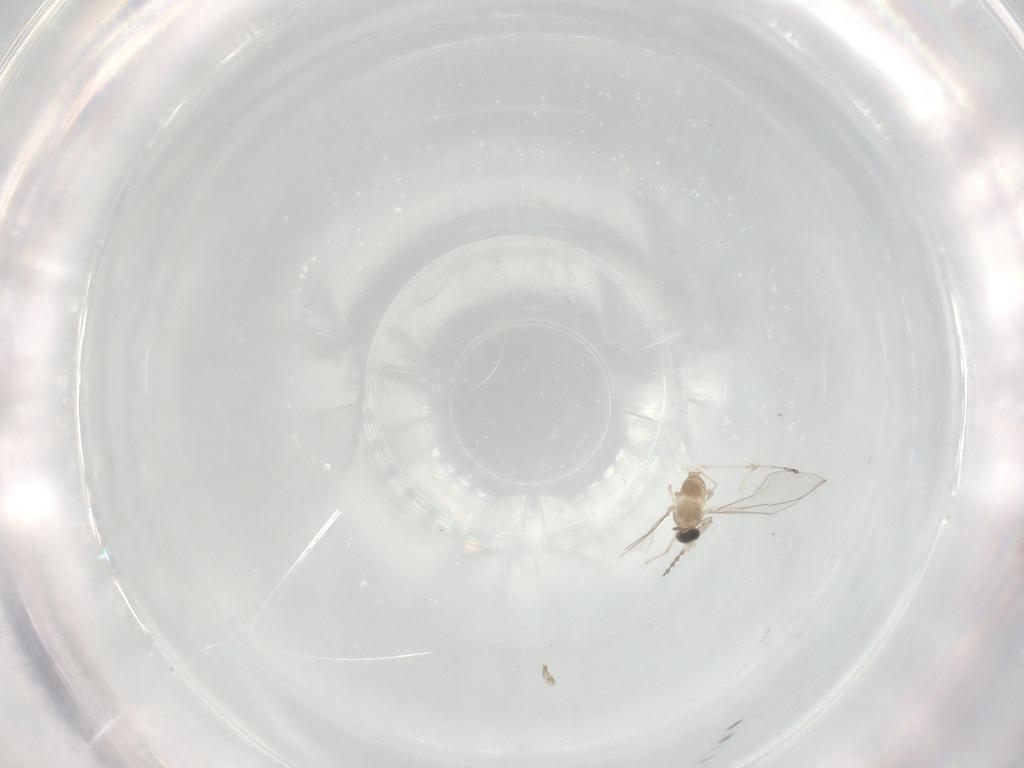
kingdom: Animalia
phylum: Arthropoda
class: Insecta
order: Diptera
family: Cecidomyiidae
